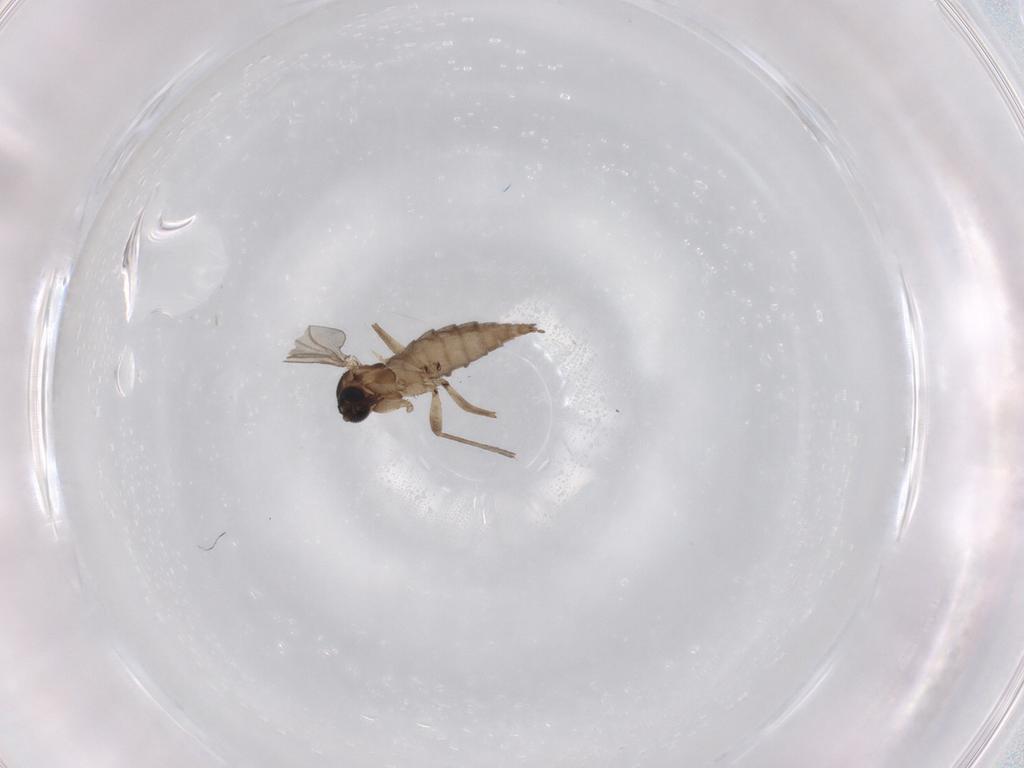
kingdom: Animalia
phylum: Arthropoda
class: Insecta
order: Diptera
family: Sciaridae
